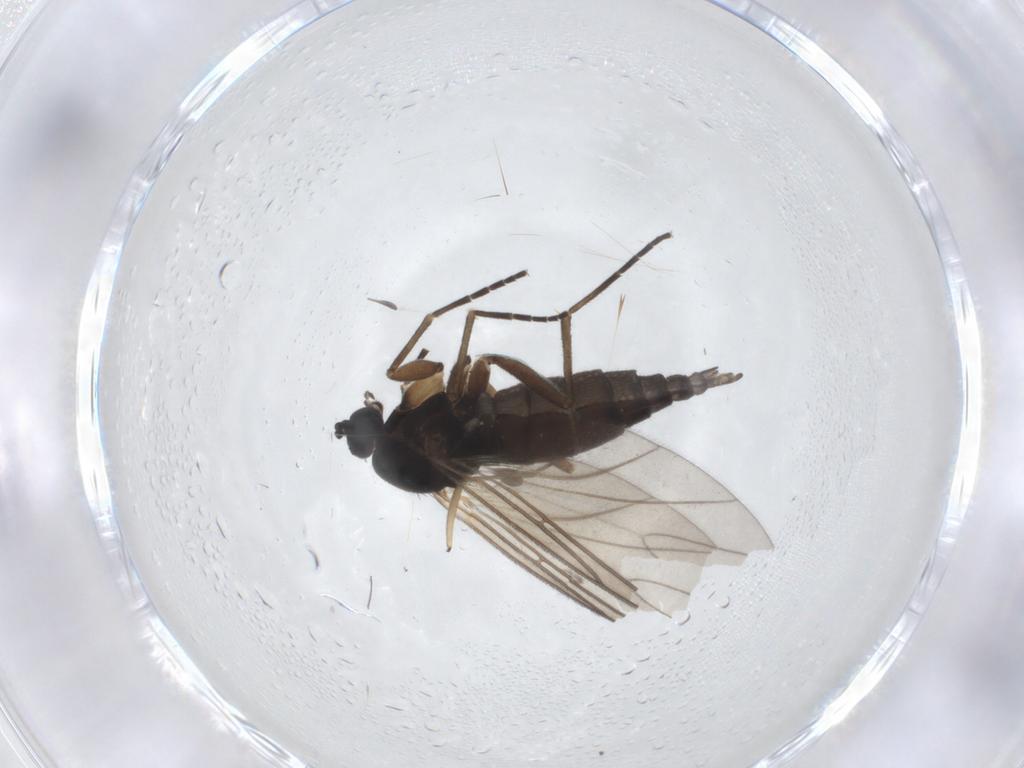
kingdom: Animalia
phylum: Arthropoda
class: Insecta
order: Diptera
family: Sciaridae
